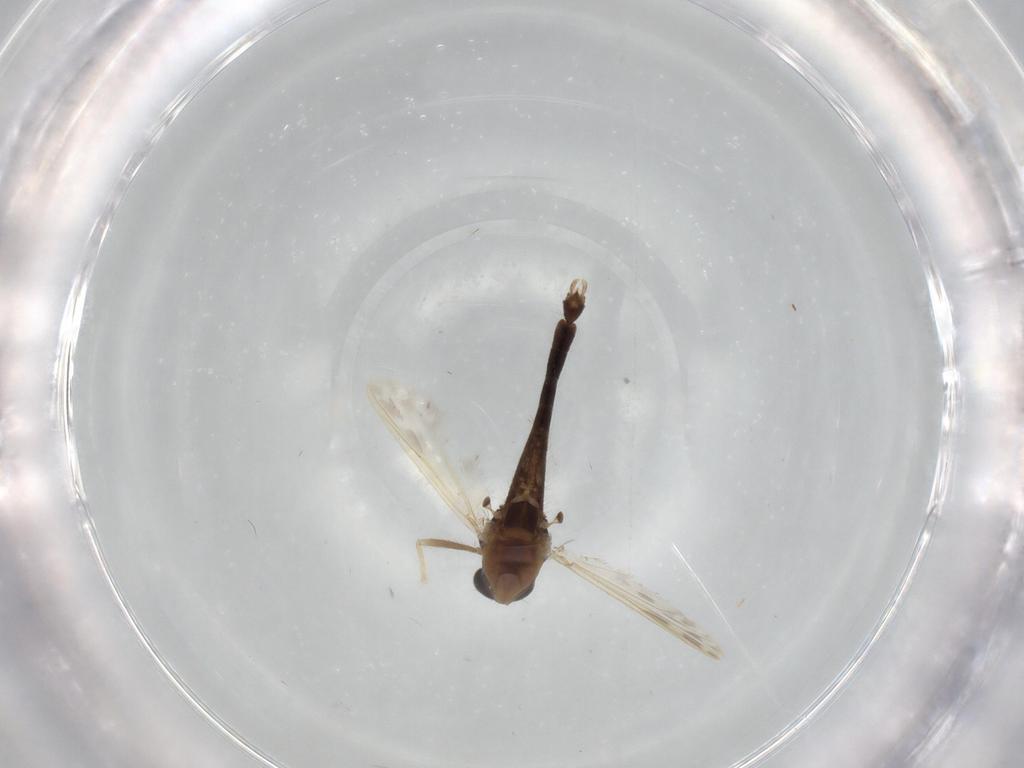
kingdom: Animalia
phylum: Arthropoda
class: Insecta
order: Diptera
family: Chironomidae
